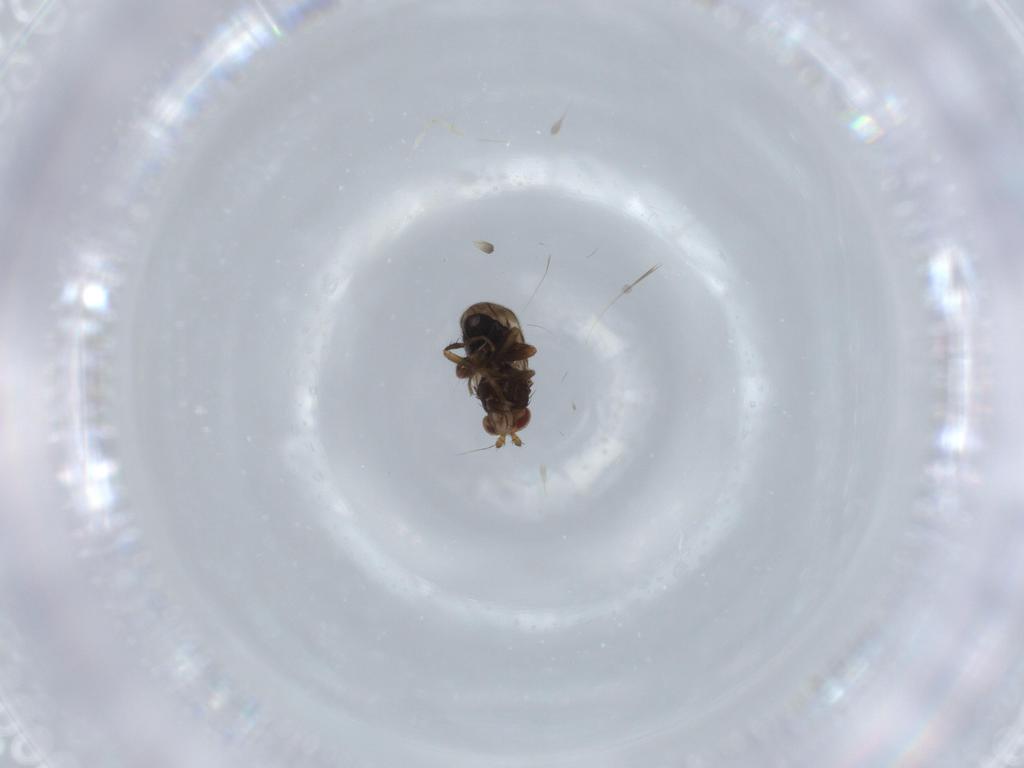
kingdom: Animalia
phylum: Arthropoda
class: Insecta
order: Diptera
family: Sphaeroceridae
